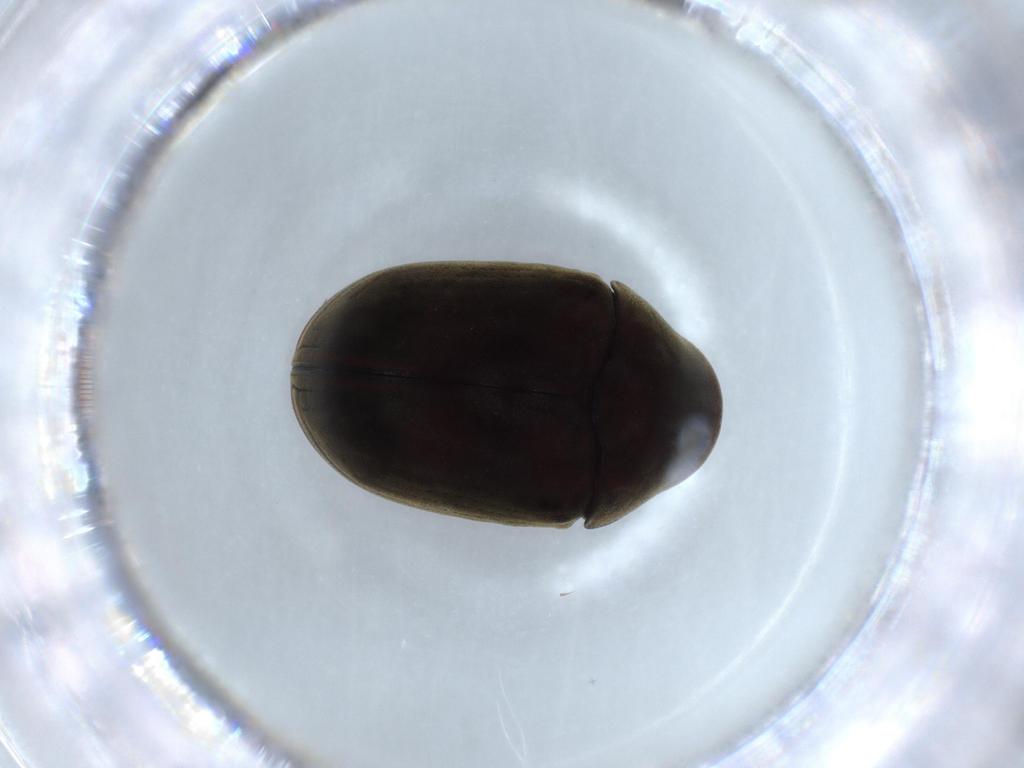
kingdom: Animalia
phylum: Arthropoda
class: Insecta
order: Coleoptera
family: Ptinidae
